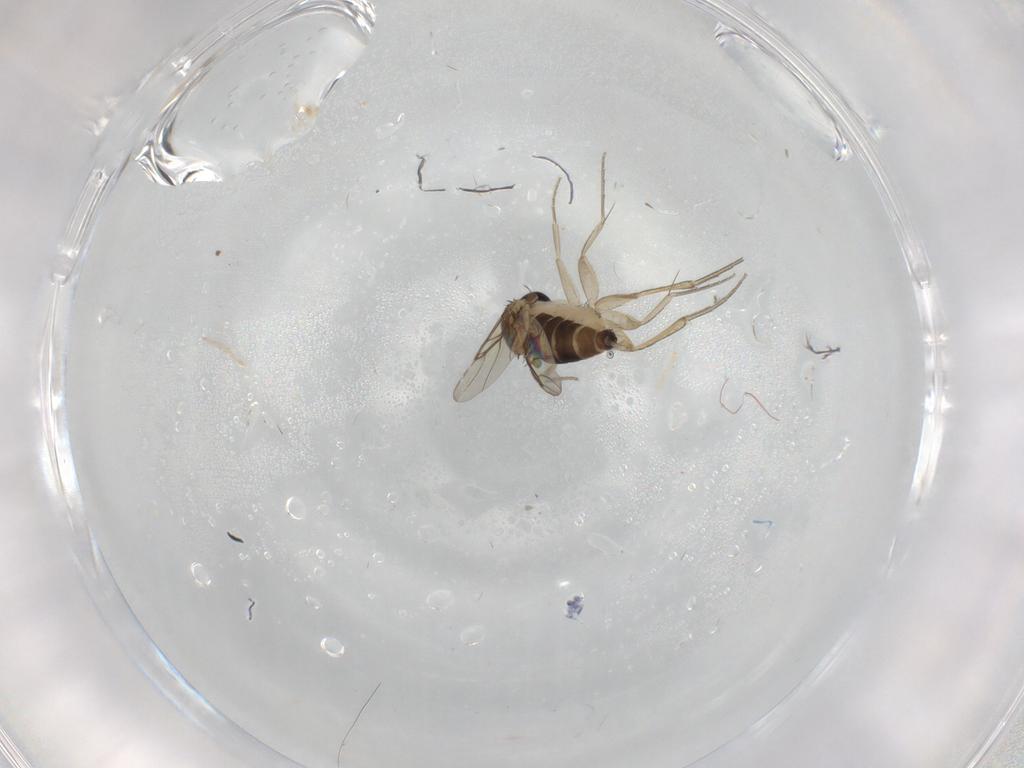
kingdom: Animalia
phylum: Arthropoda
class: Insecta
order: Diptera
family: Phoridae
